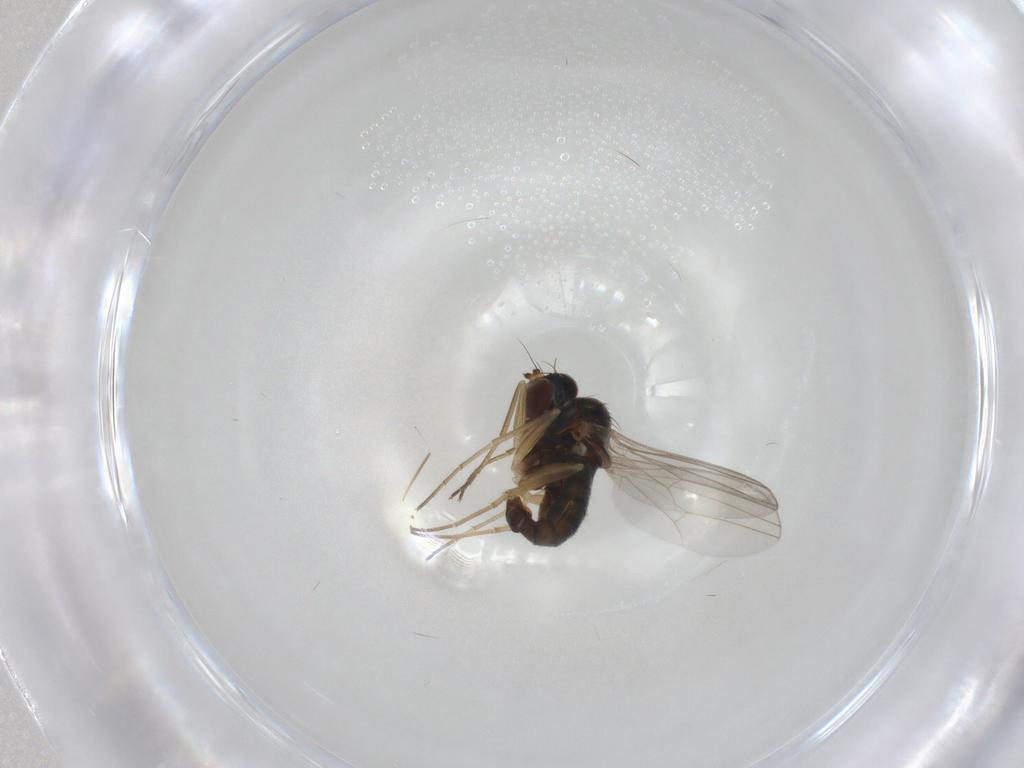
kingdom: Animalia
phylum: Arthropoda
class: Insecta
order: Diptera
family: Dolichopodidae
